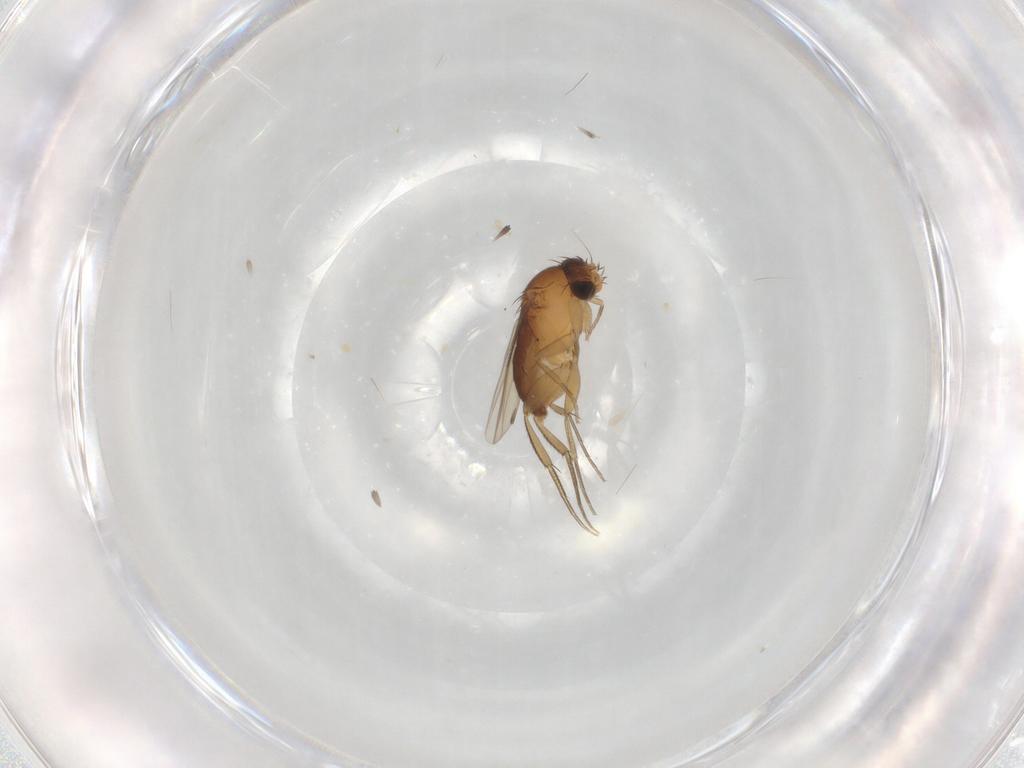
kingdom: Animalia
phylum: Arthropoda
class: Insecta
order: Diptera
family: Phoridae
